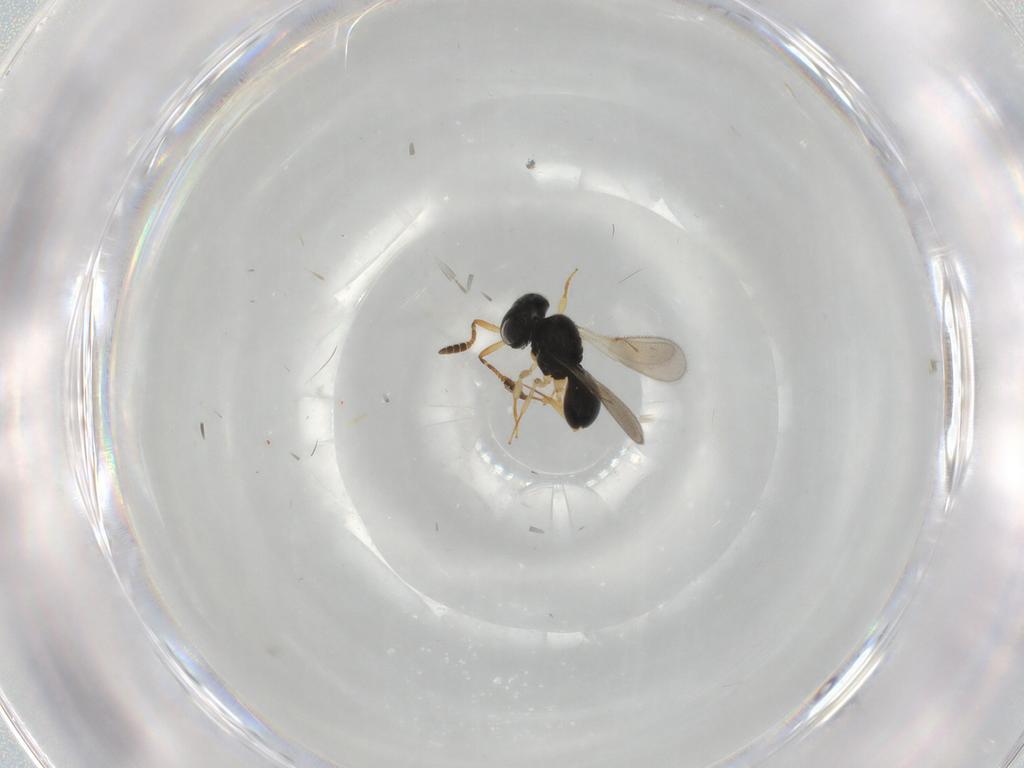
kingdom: Animalia
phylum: Arthropoda
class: Insecta
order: Hymenoptera
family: Scelionidae
